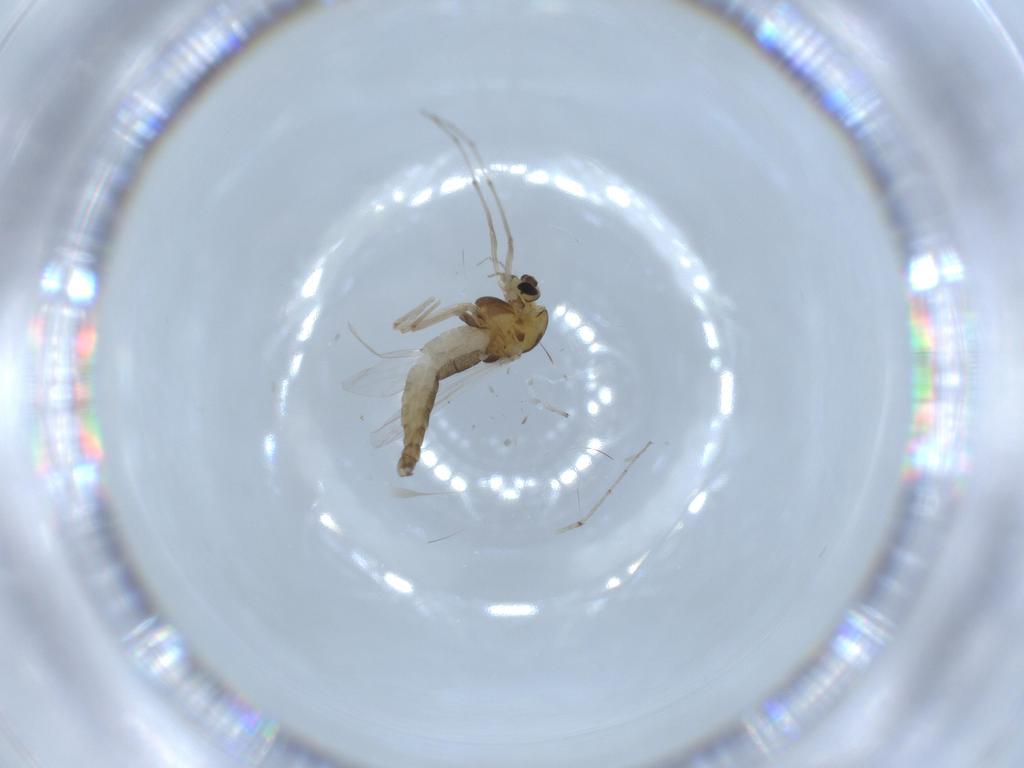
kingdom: Animalia
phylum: Arthropoda
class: Insecta
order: Diptera
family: Chironomidae
